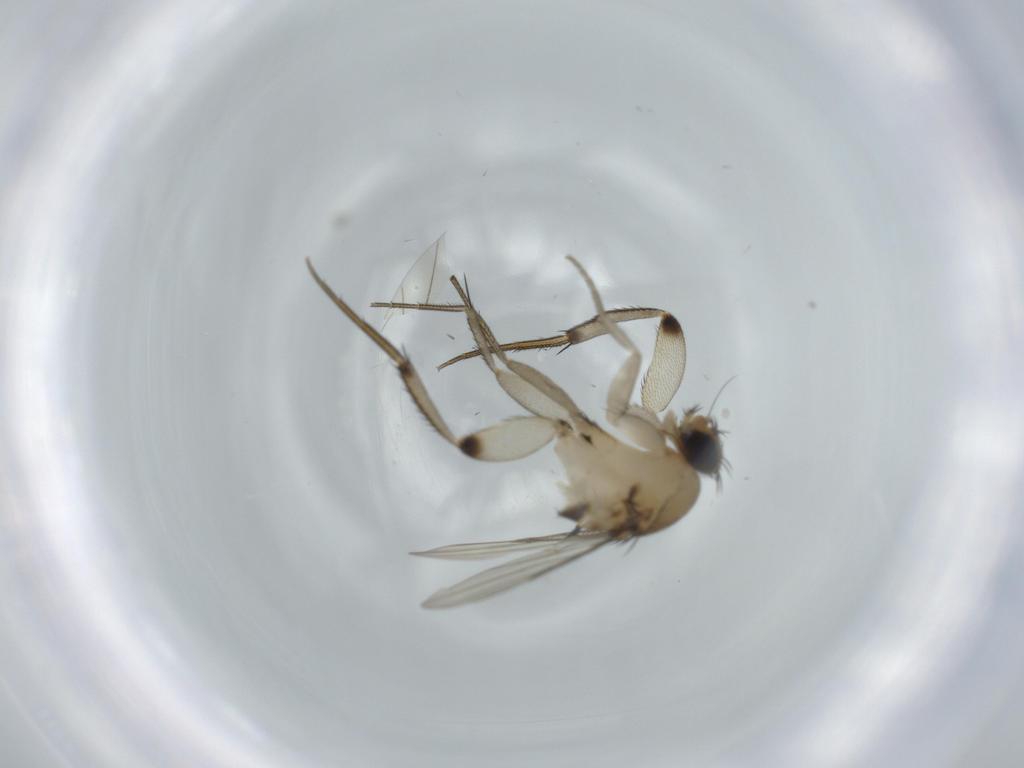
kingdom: Animalia
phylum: Arthropoda
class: Insecta
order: Diptera
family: Phoridae
